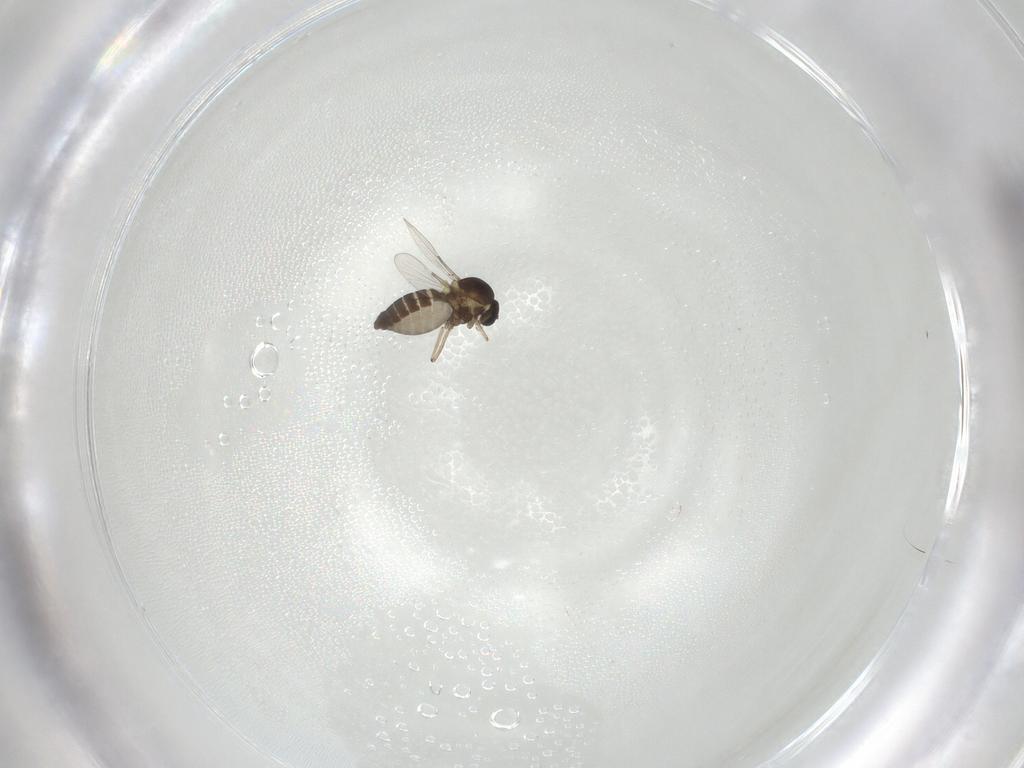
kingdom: Animalia
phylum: Arthropoda
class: Insecta
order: Diptera
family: Ceratopogonidae
